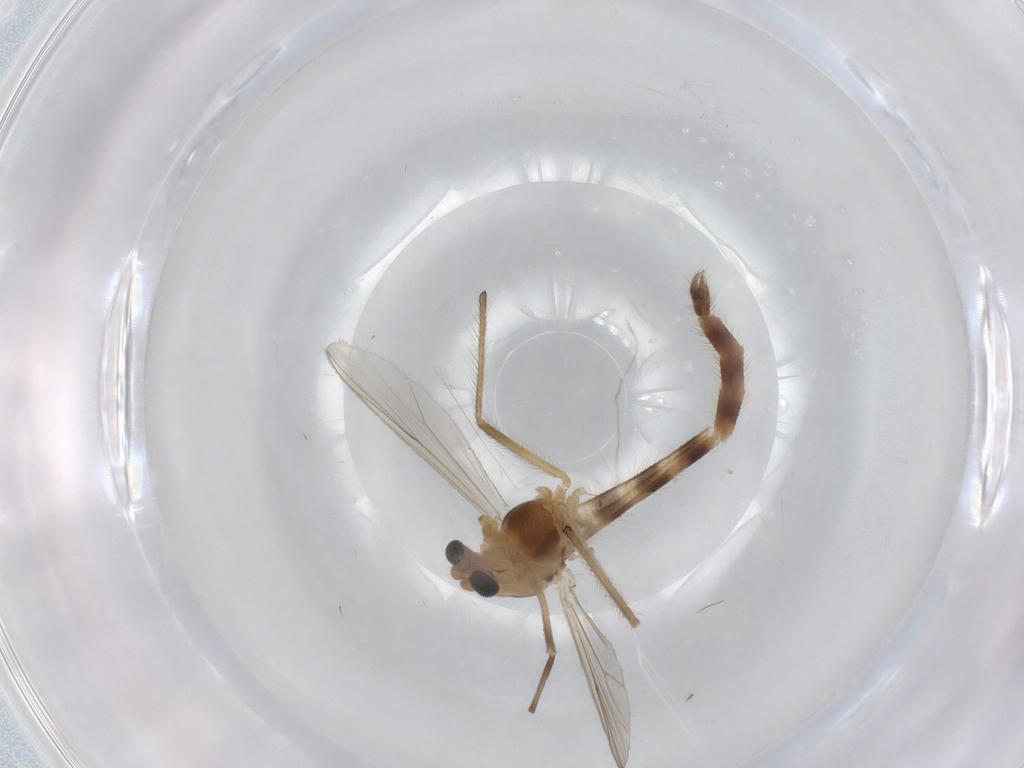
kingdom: Animalia
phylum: Arthropoda
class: Insecta
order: Diptera
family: Chironomidae
